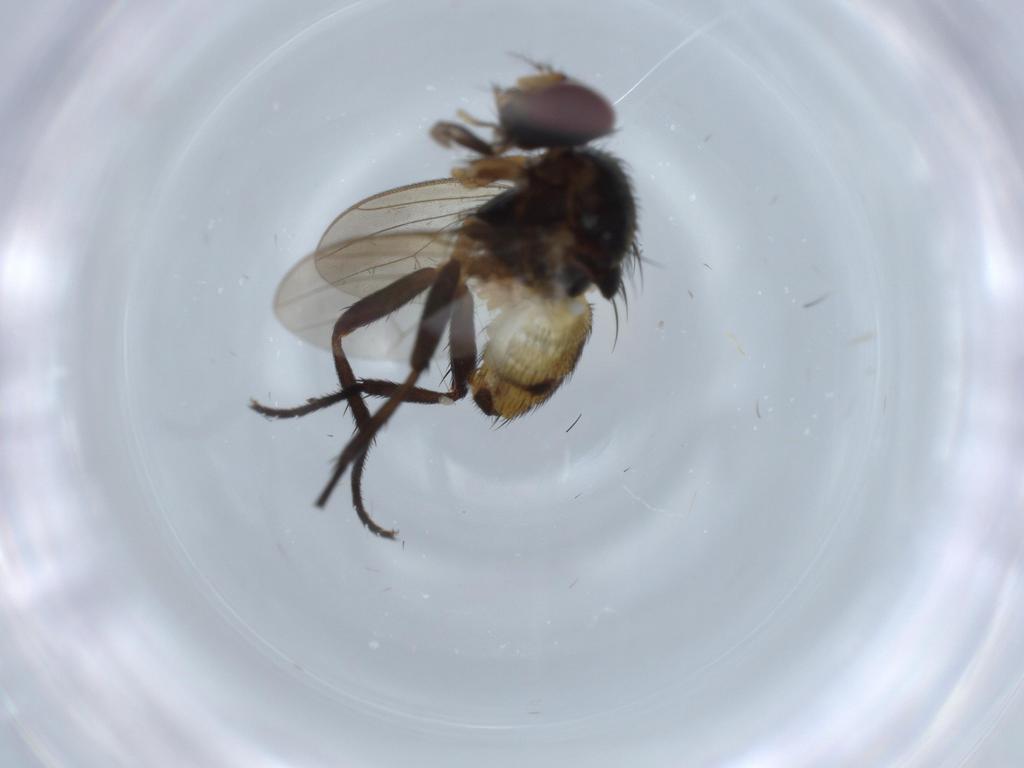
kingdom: Animalia
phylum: Arthropoda
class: Insecta
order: Diptera
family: Anthomyiidae
